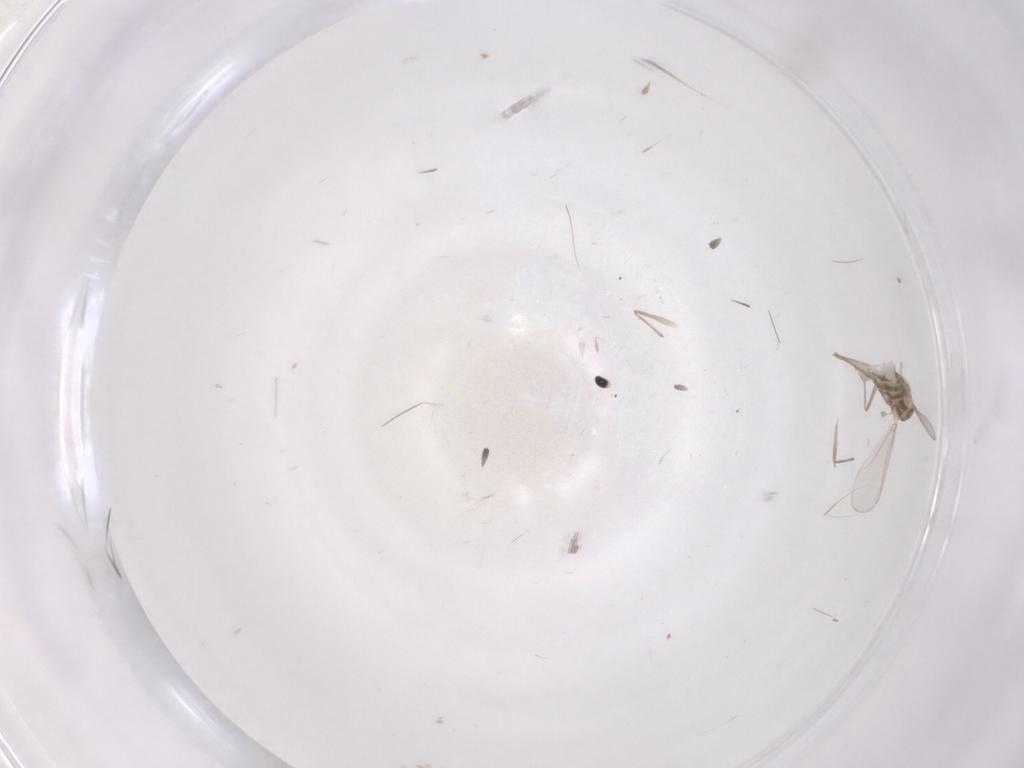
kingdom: Animalia
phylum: Arthropoda
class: Insecta
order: Diptera
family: Chironomidae
